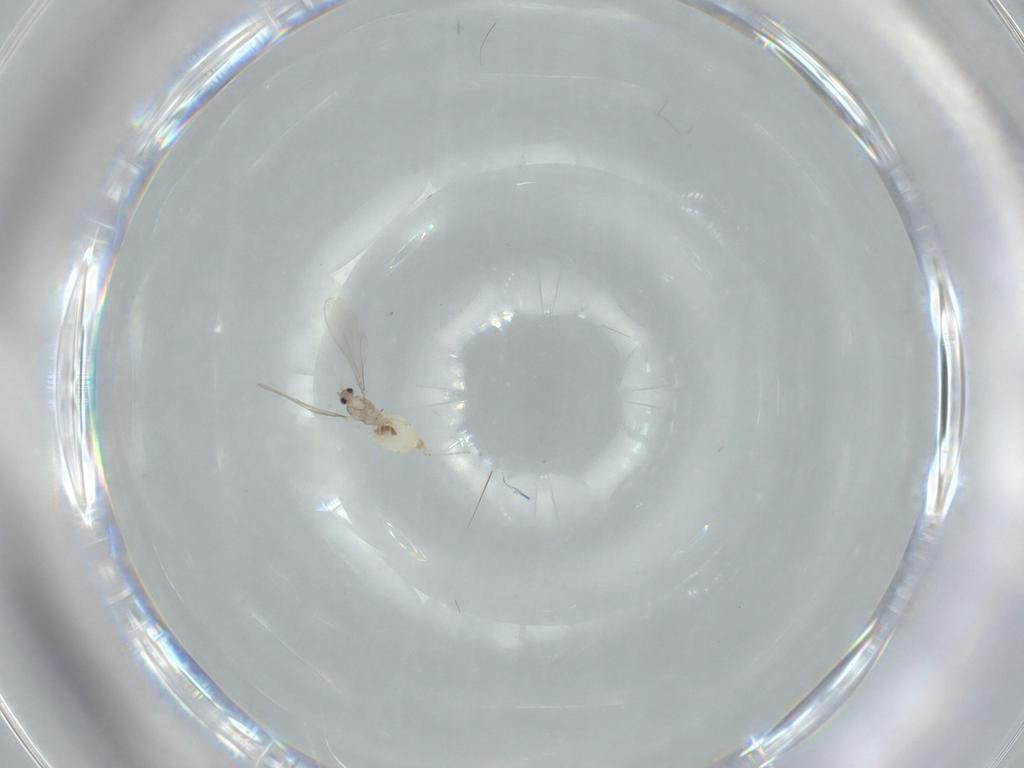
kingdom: Animalia
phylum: Arthropoda
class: Insecta
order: Diptera
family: Cecidomyiidae
